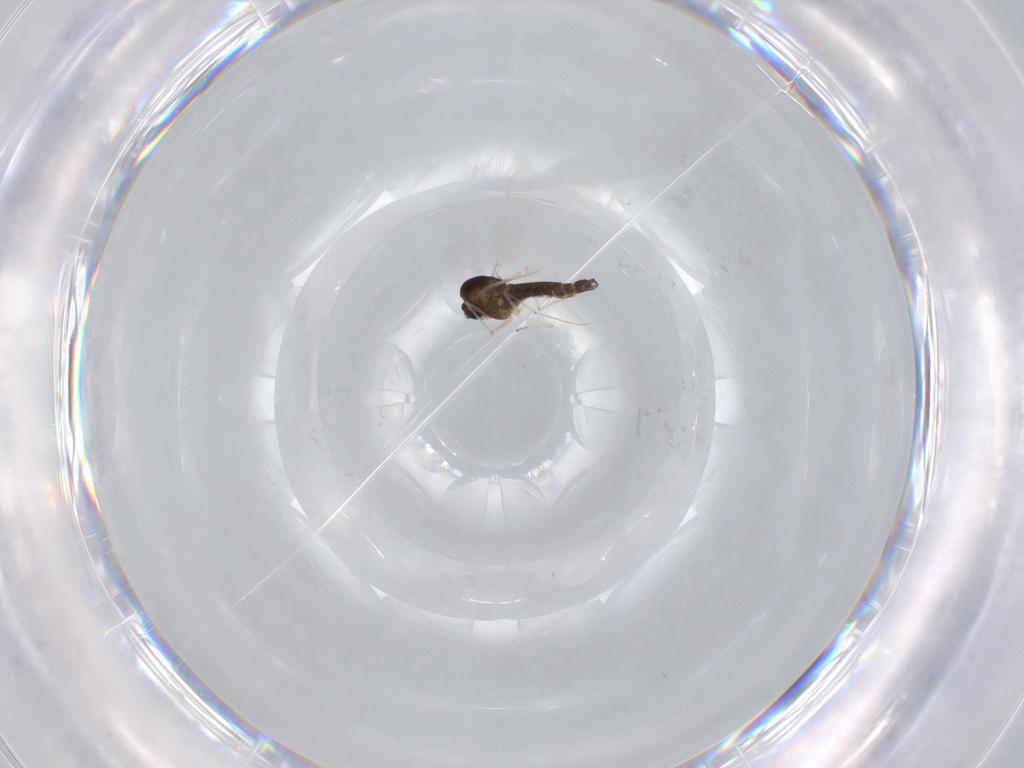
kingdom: Animalia
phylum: Arthropoda
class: Insecta
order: Diptera
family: Chironomidae
